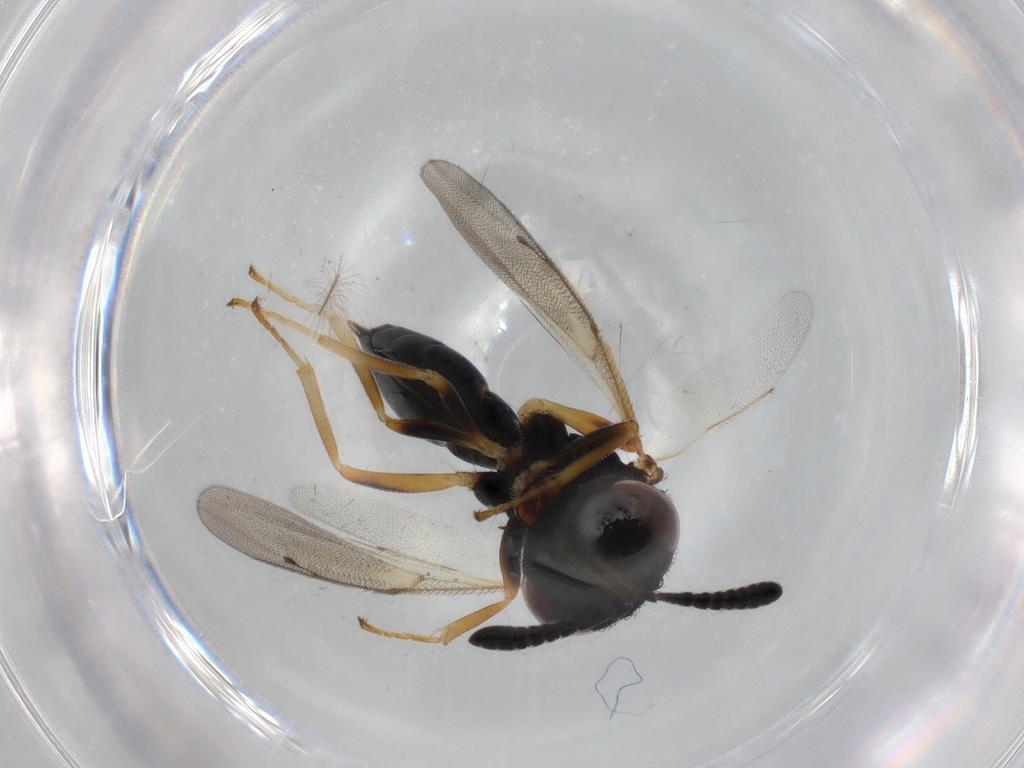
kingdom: Animalia
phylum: Arthropoda
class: Insecta
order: Hymenoptera
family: Pteromalidae
